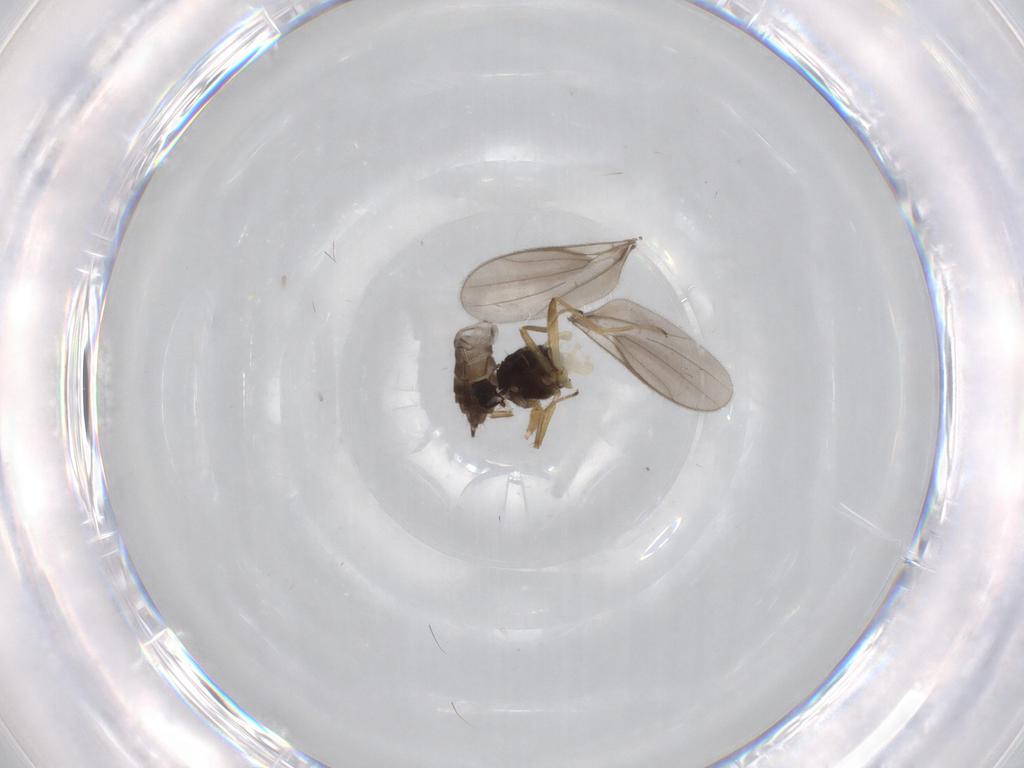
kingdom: Animalia
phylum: Arthropoda
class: Insecta
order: Diptera
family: Hybotidae
